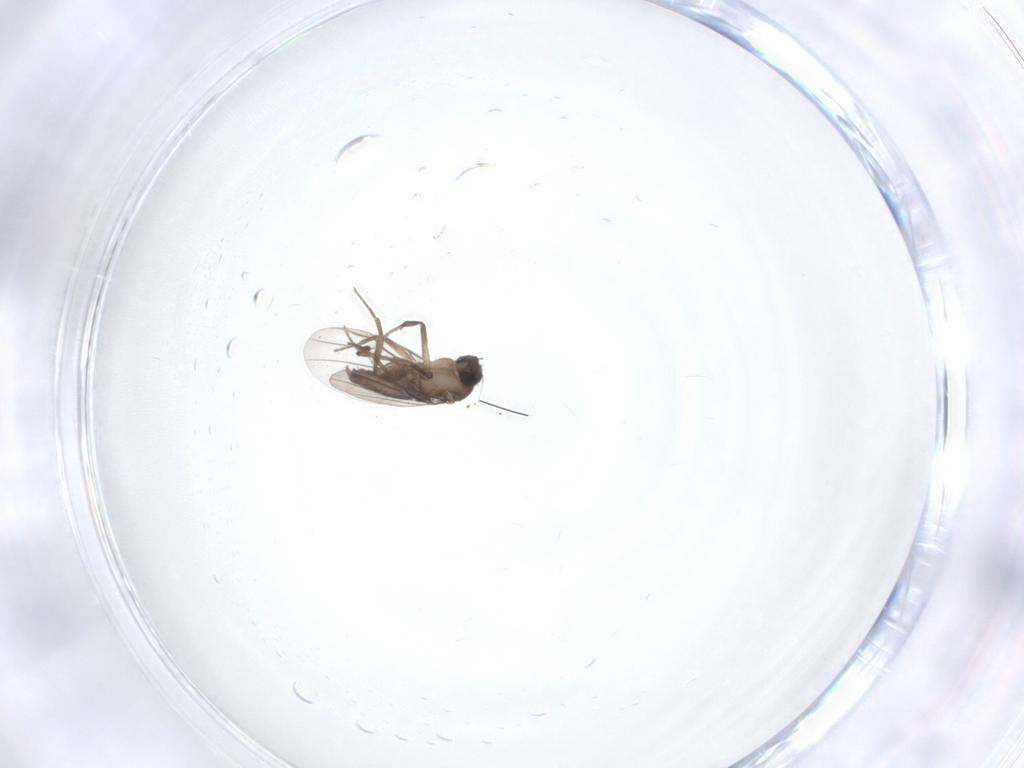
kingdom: Animalia
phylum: Arthropoda
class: Insecta
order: Diptera
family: Phoridae
